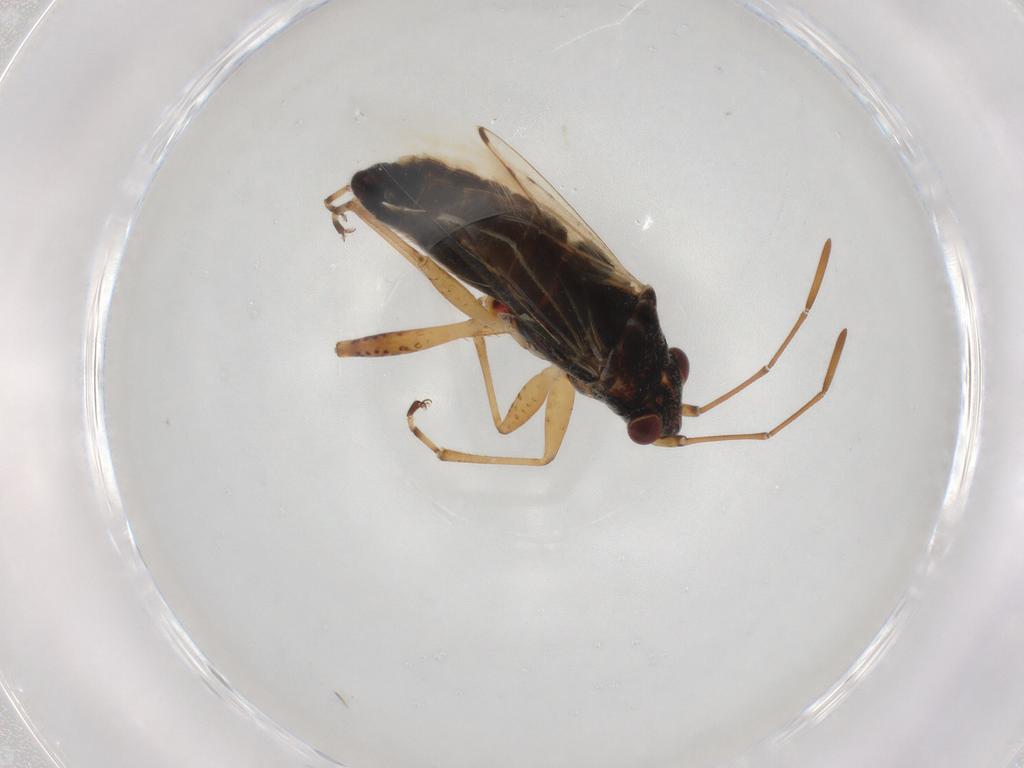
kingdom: Animalia
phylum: Arthropoda
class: Insecta
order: Hemiptera
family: Lygaeidae
